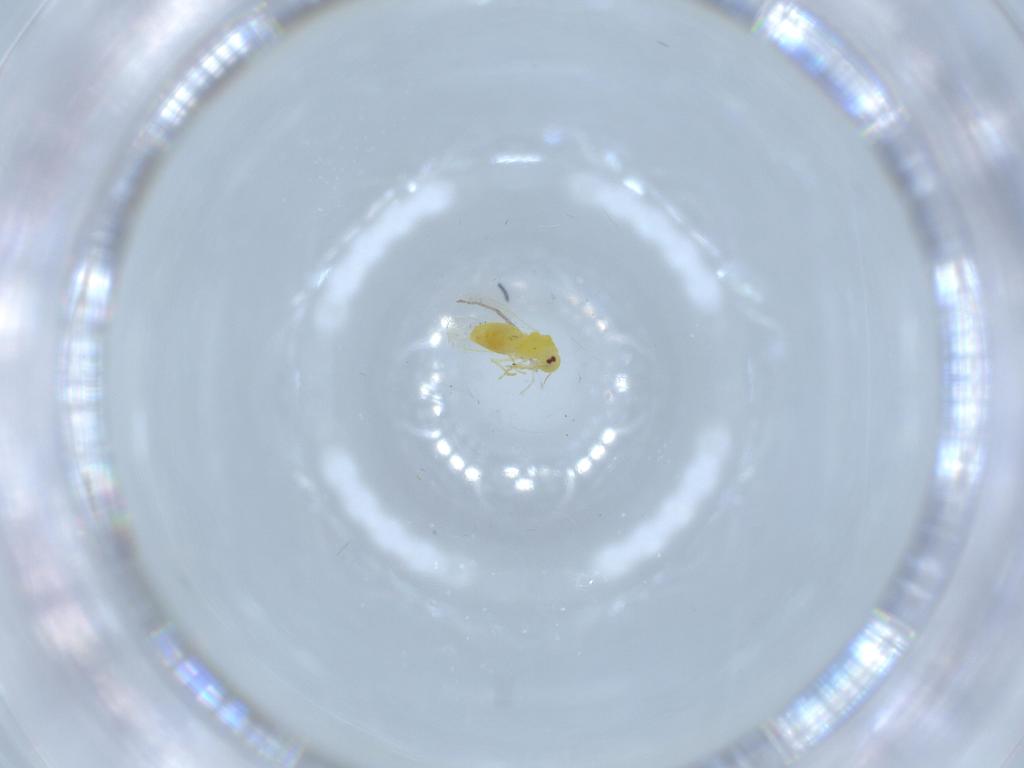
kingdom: Animalia
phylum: Arthropoda
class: Insecta
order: Hemiptera
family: Aleyrodidae
